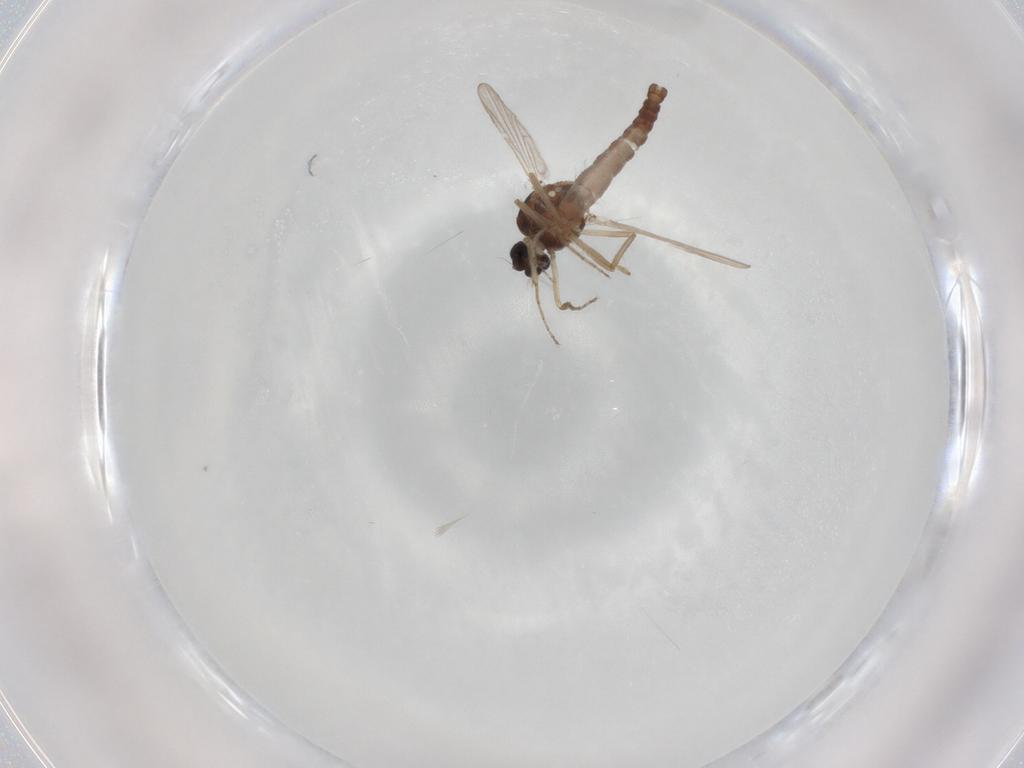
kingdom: Animalia
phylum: Arthropoda
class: Insecta
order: Diptera
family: Ceratopogonidae
